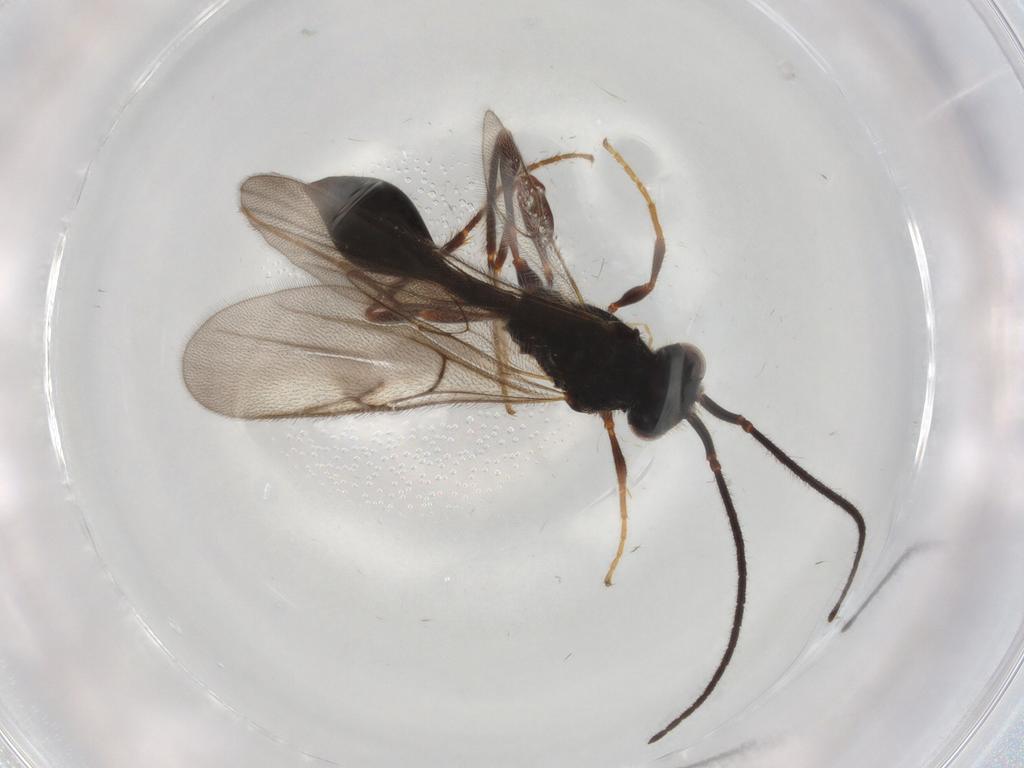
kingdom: Animalia
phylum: Arthropoda
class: Insecta
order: Hymenoptera
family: Diapriidae
